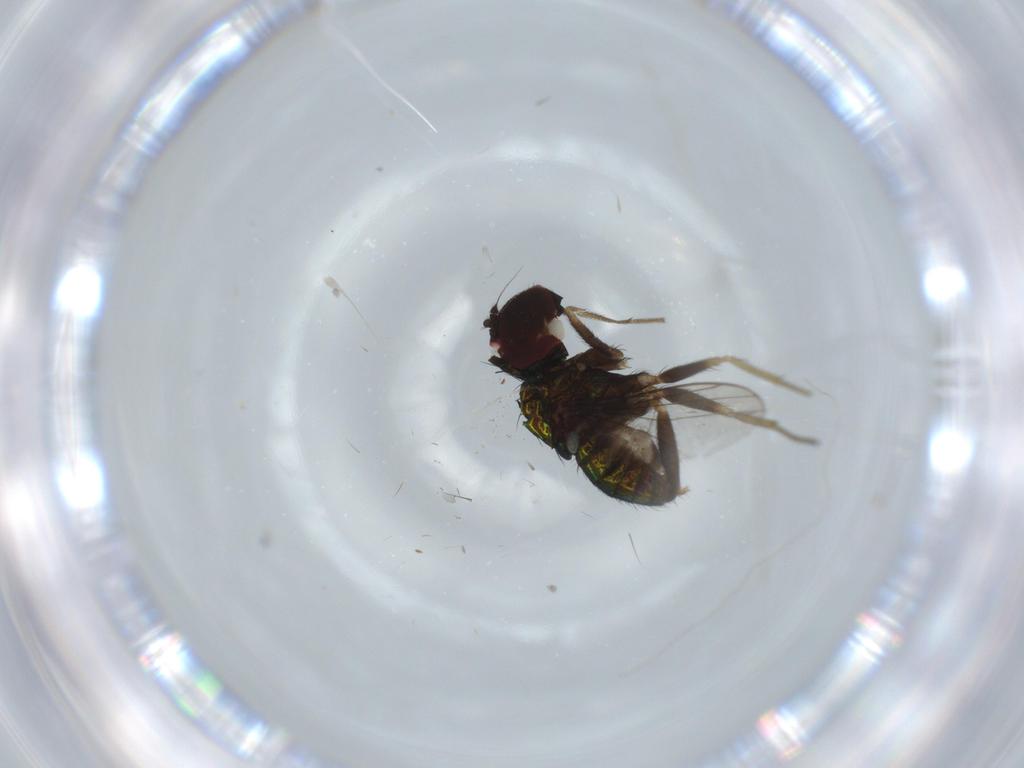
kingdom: Animalia
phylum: Arthropoda
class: Insecta
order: Diptera
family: Dolichopodidae
